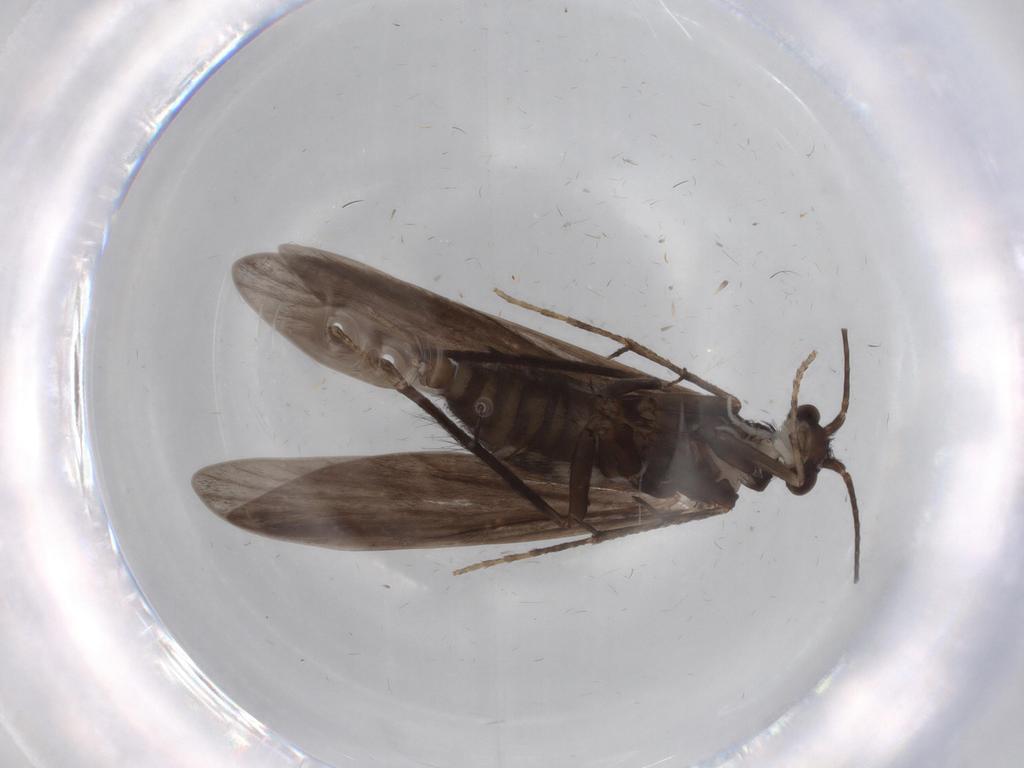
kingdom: Animalia
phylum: Arthropoda
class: Insecta
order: Trichoptera
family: Xiphocentronidae
